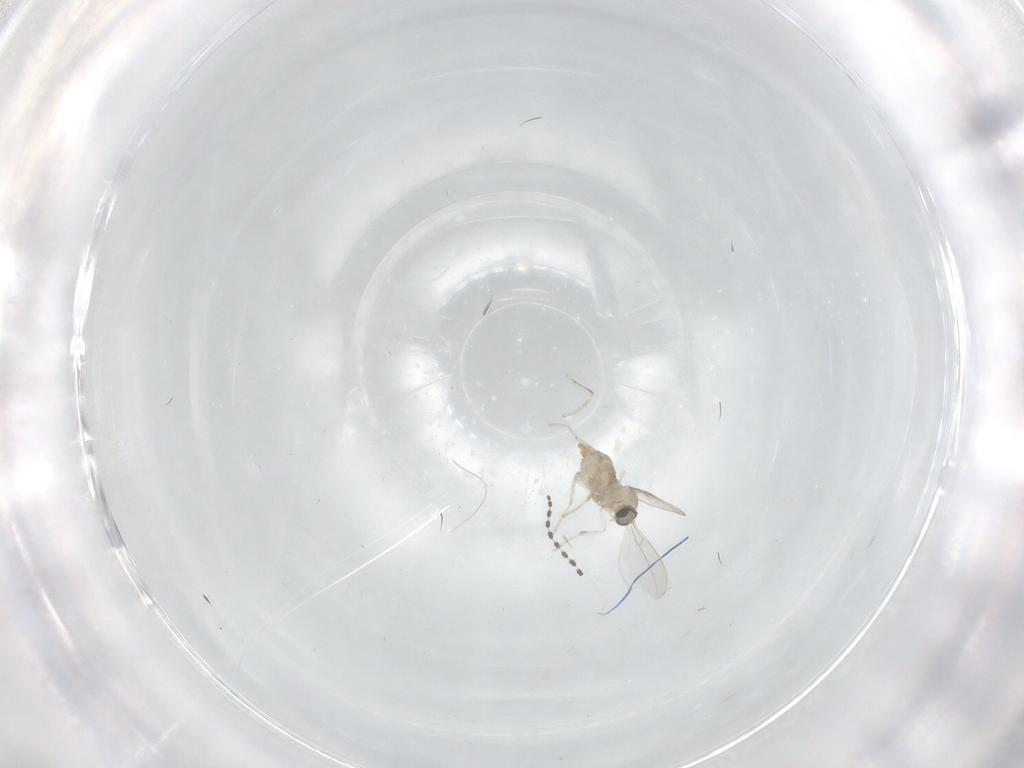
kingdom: Animalia
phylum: Arthropoda
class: Insecta
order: Diptera
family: Cecidomyiidae
